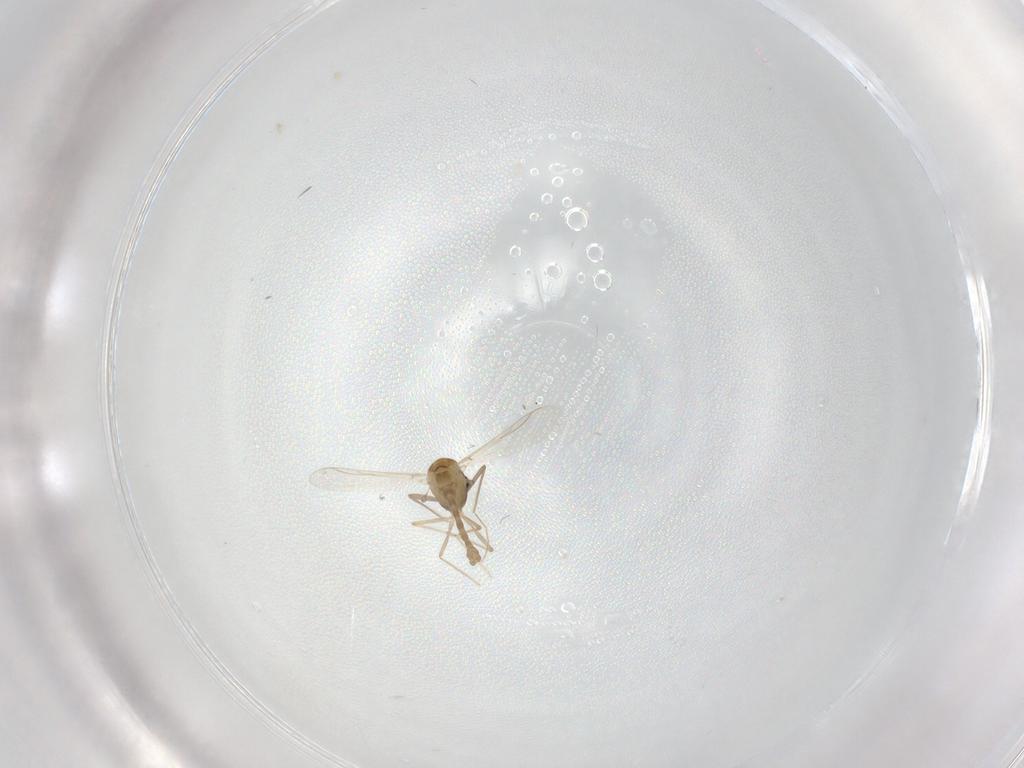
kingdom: Animalia
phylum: Arthropoda
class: Insecta
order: Diptera
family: Chironomidae
